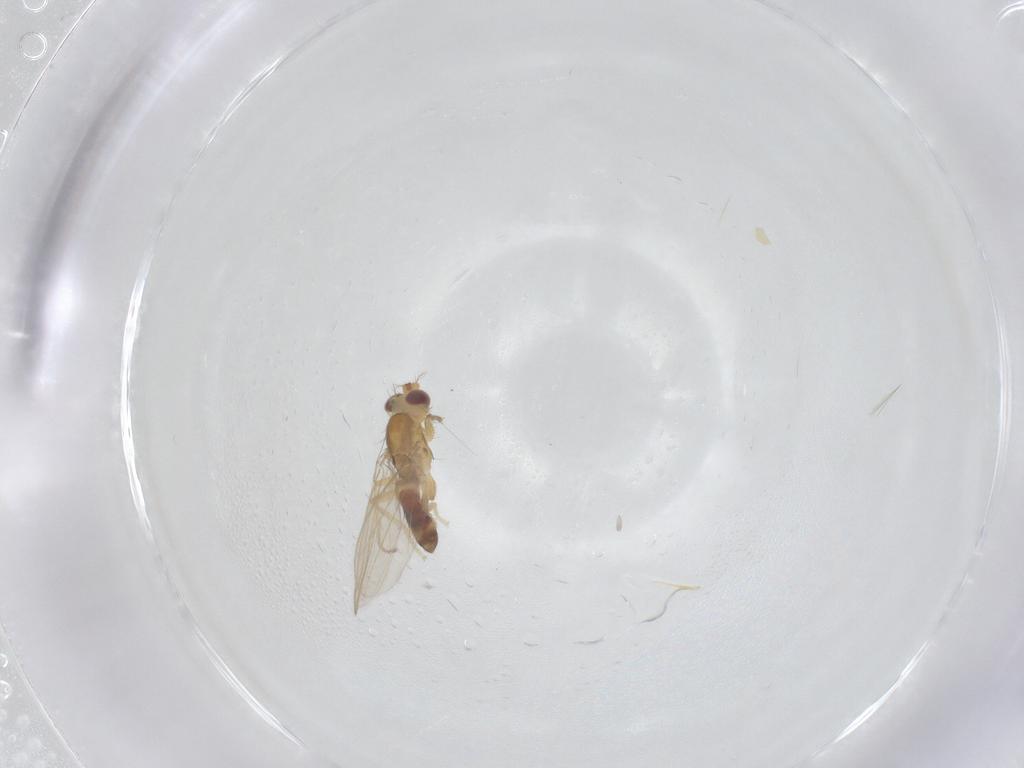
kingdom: Animalia
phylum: Arthropoda
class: Insecta
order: Diptera
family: Periscelididae
